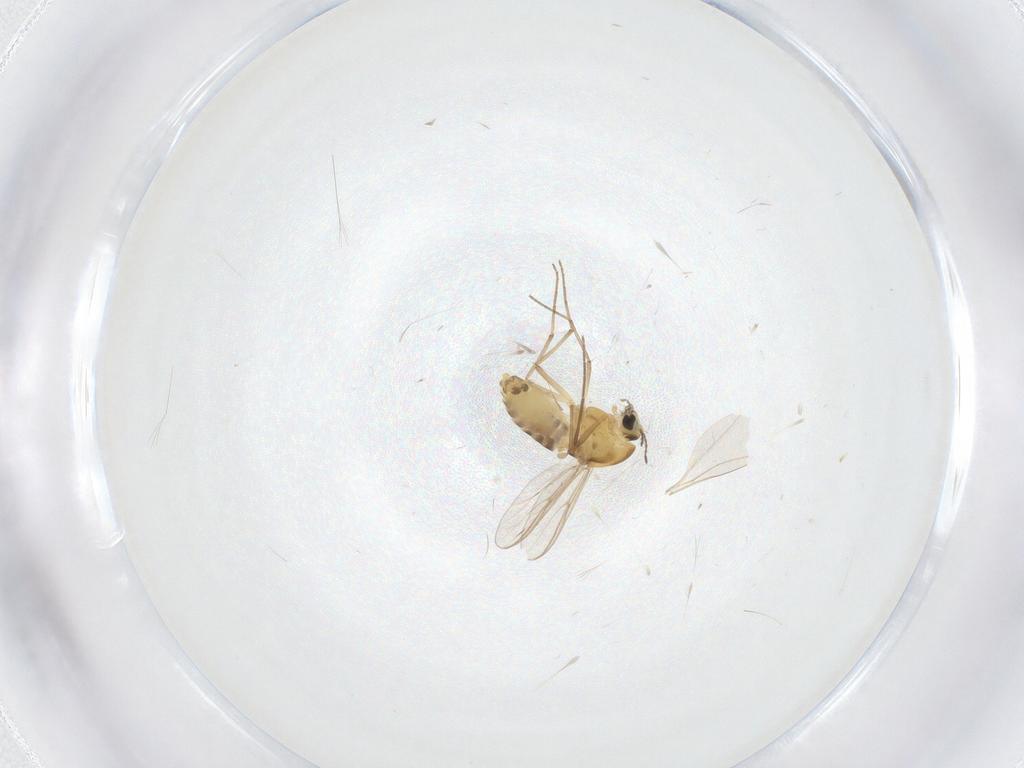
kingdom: Animalia
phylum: Arthropoda
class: Insecta
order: Diptera
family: Chironomidae
